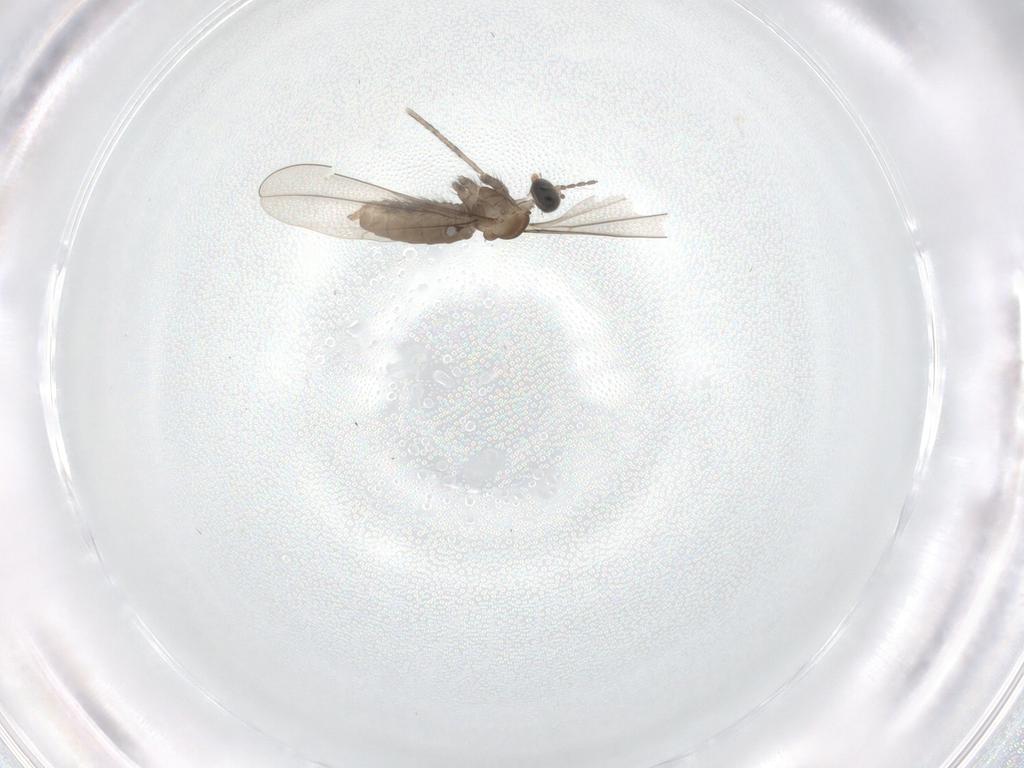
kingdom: Animalia
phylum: Arthropoda
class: Insecta
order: Diptera
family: Cecidomyiidae
